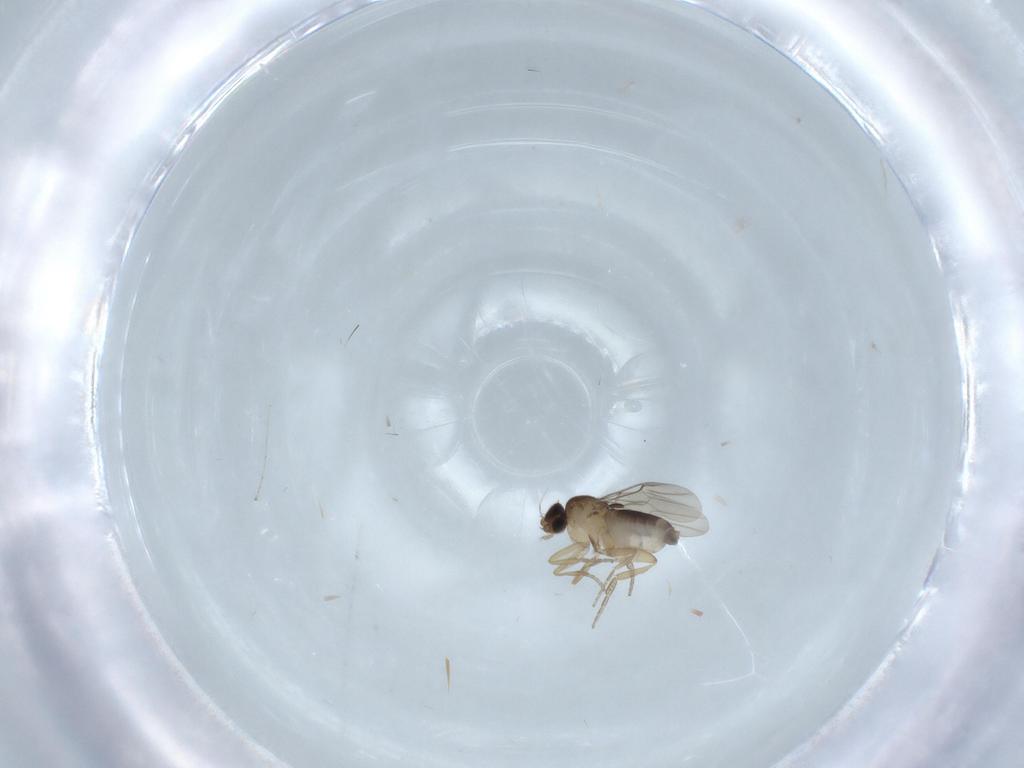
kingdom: Animalia
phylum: Arthropoda
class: Insecta
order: Diptera
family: Phoridae
